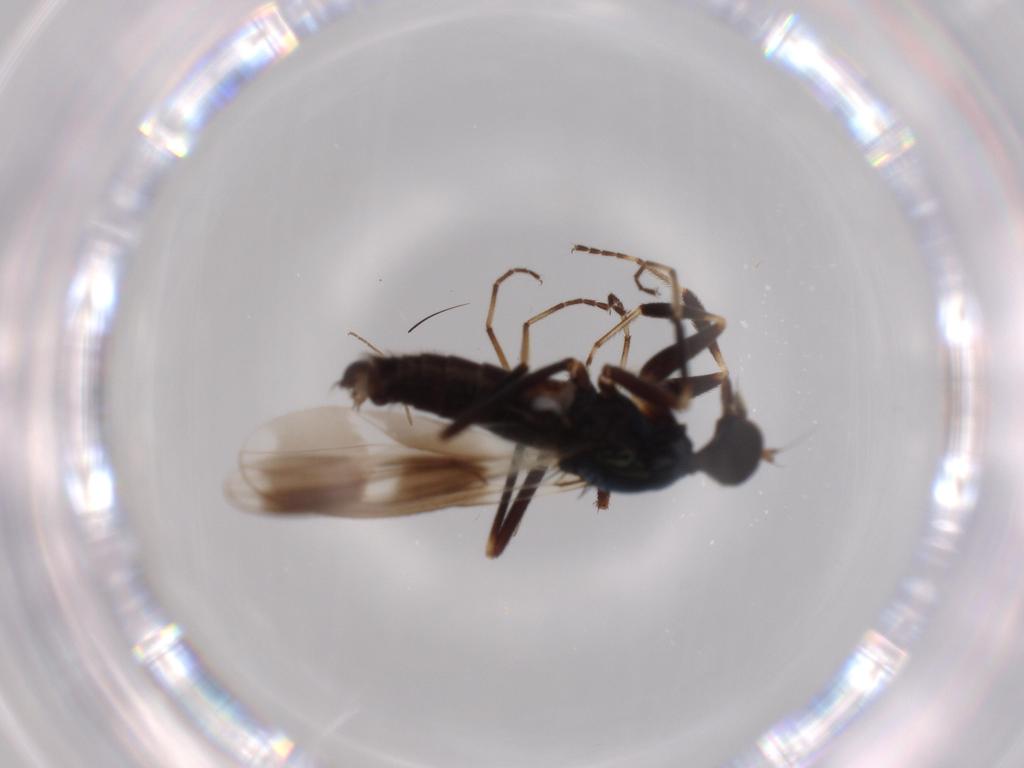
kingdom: Animalia
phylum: Arthropoda
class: Insecta
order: Diptera
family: Hybotidae
